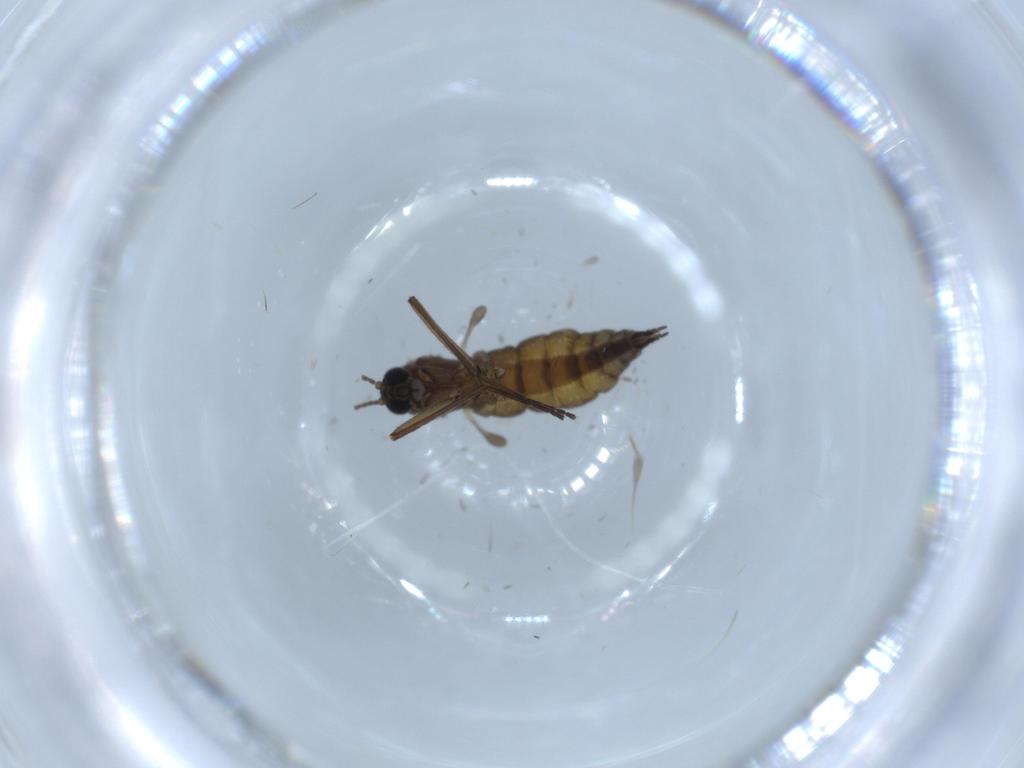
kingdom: Animalia
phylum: Arthropoda
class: Insecta
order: Diptera
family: Sciaridae
